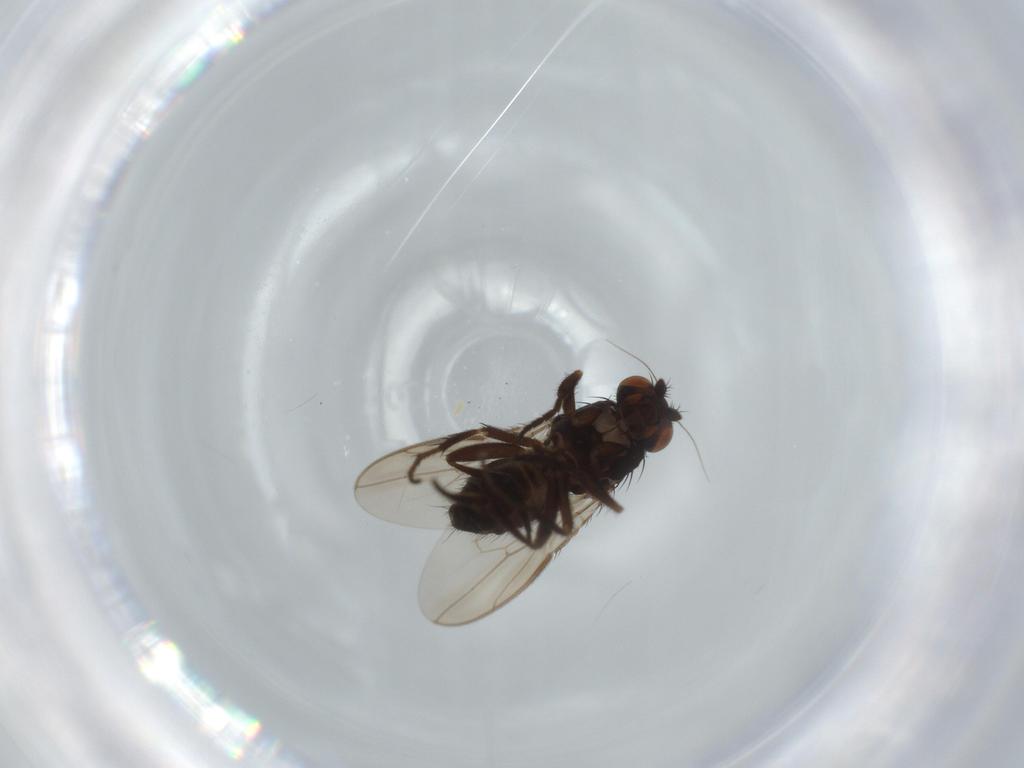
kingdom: Animalia
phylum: Arthropoda
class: Insecta
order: Diptera
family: Sphaeroceridae
